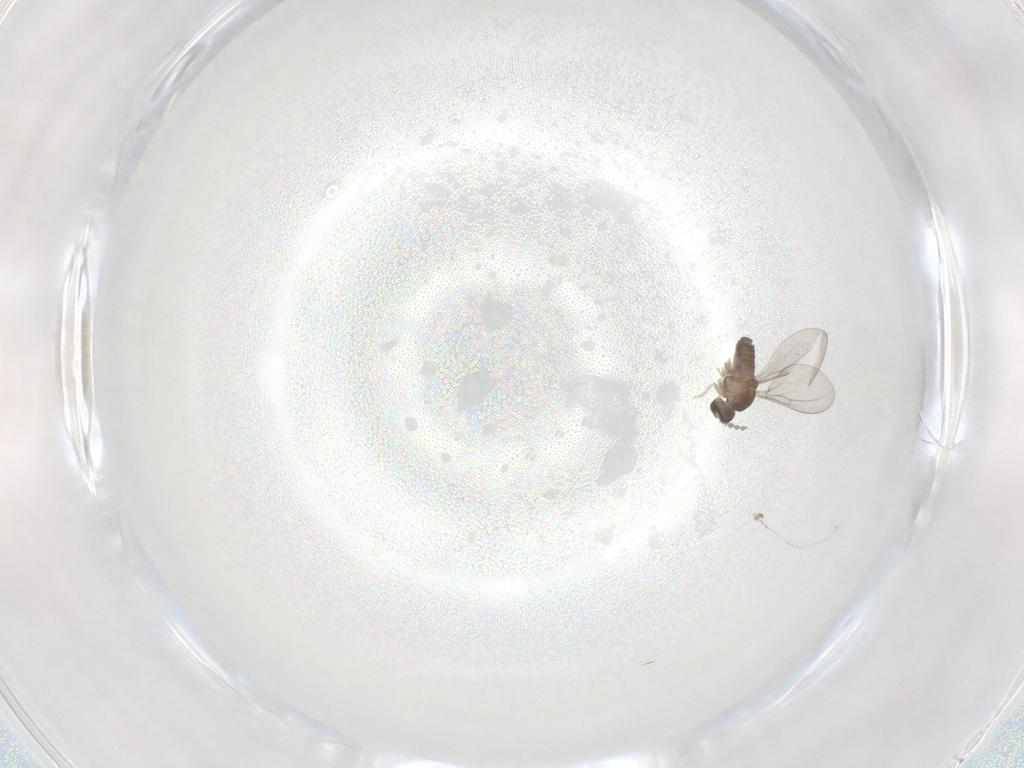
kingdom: Animalia
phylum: Arthropoda
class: Insecta
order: Diptera
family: Cecidomyiidae
